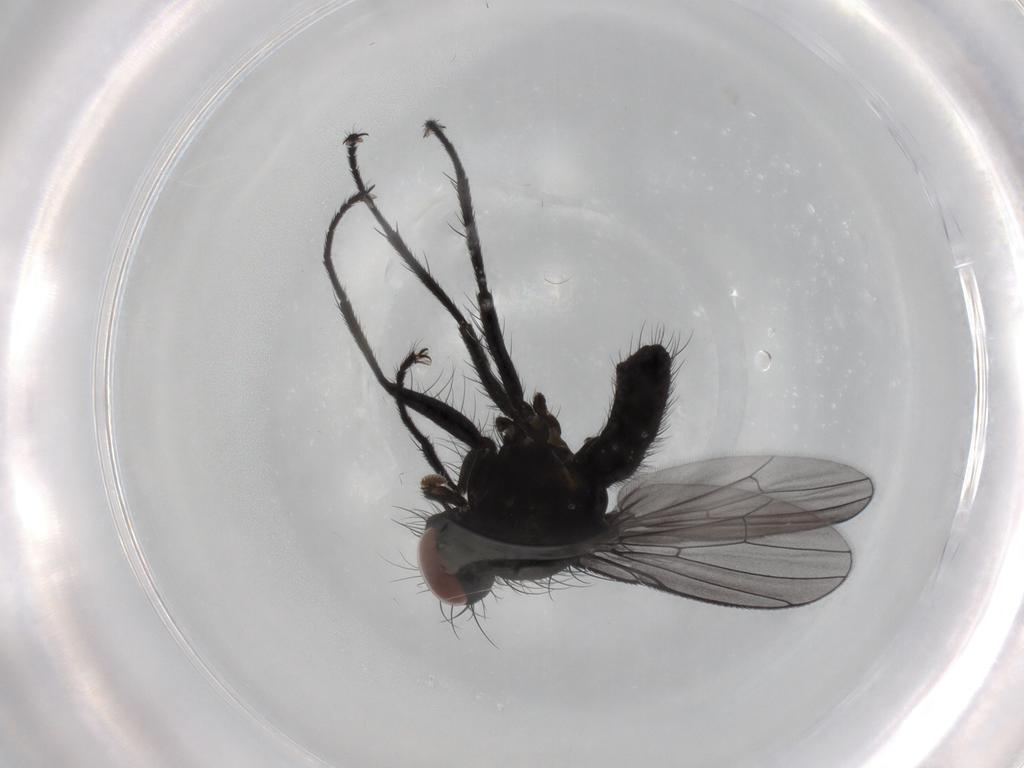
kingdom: Animalia
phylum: Arthropoda
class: Insecta
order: Diptera
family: Muscidae
